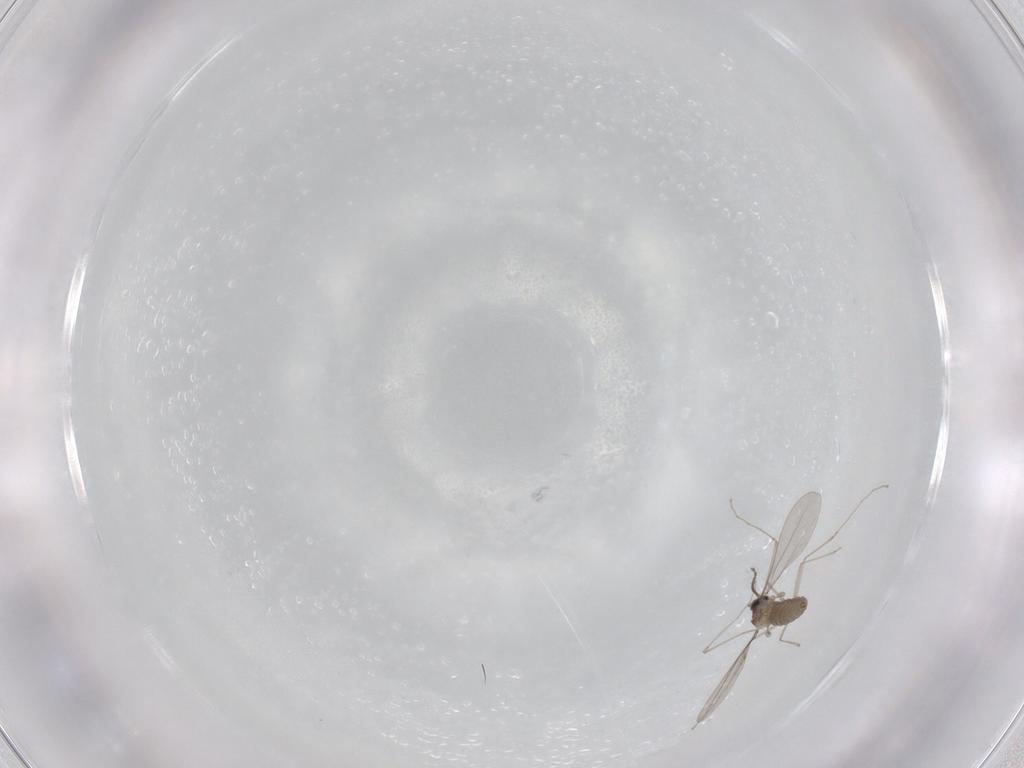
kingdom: Animalia
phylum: Arthropoda
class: Insecta
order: Diptera
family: Cecidomyiidae
